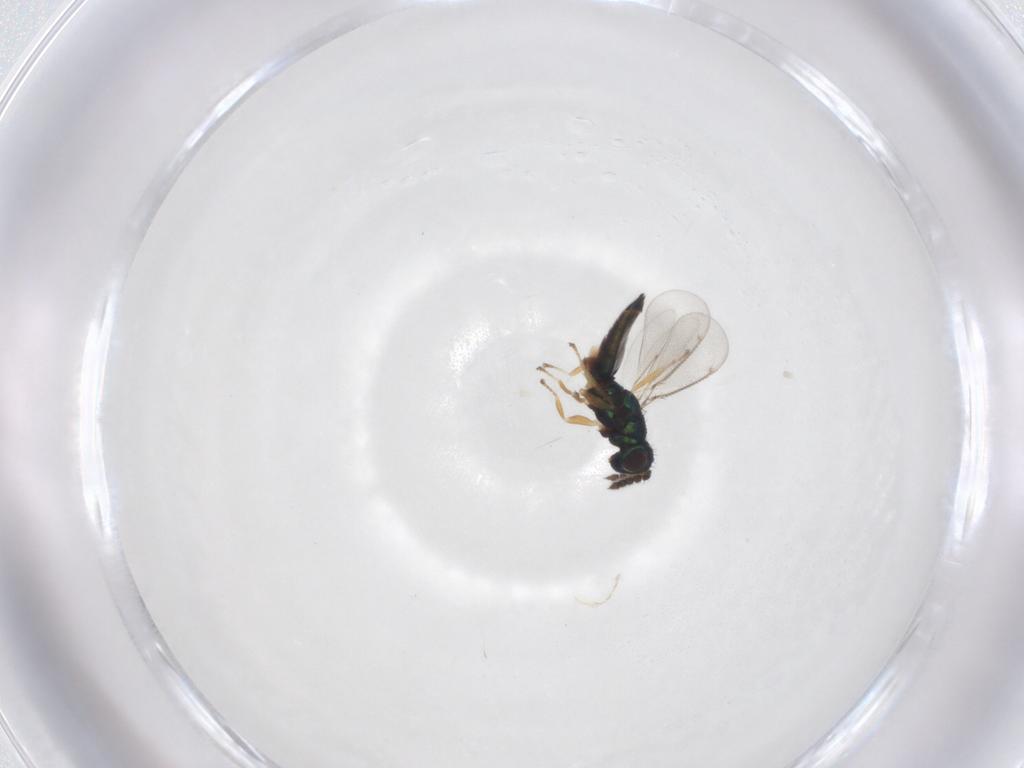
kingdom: Animalia
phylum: Arthropoda
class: Insecta
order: Hymenoptera
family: Eulophidae
